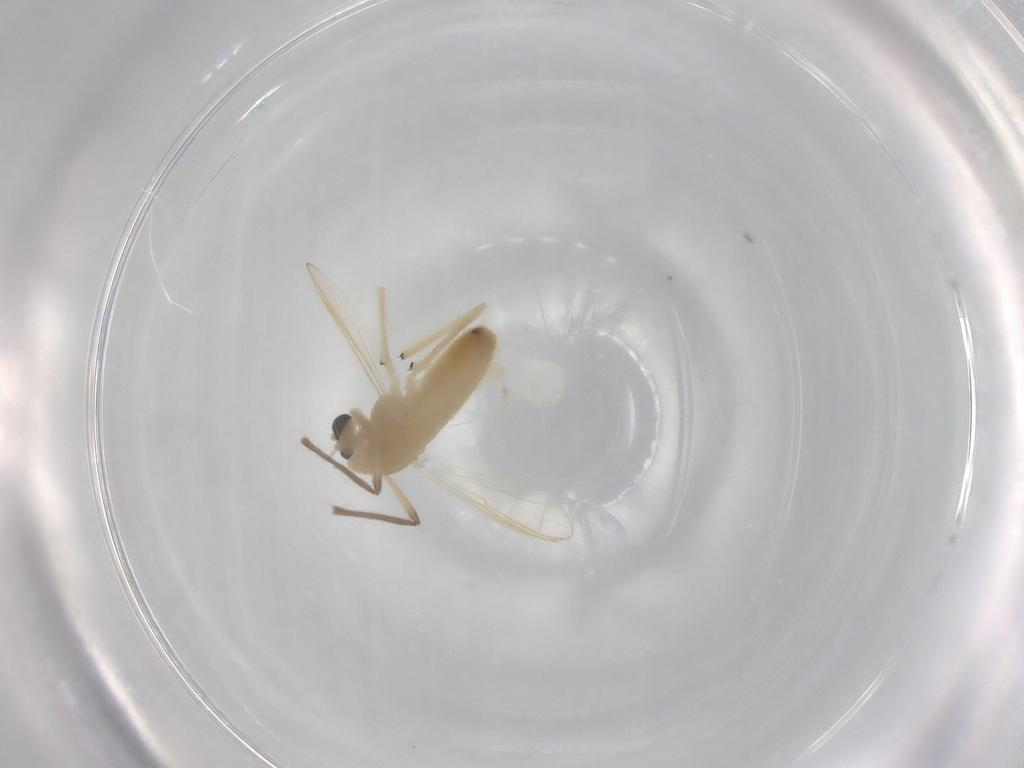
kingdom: Animalia
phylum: Arthropoda
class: Insecta
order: Diptera
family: Chironomidae
